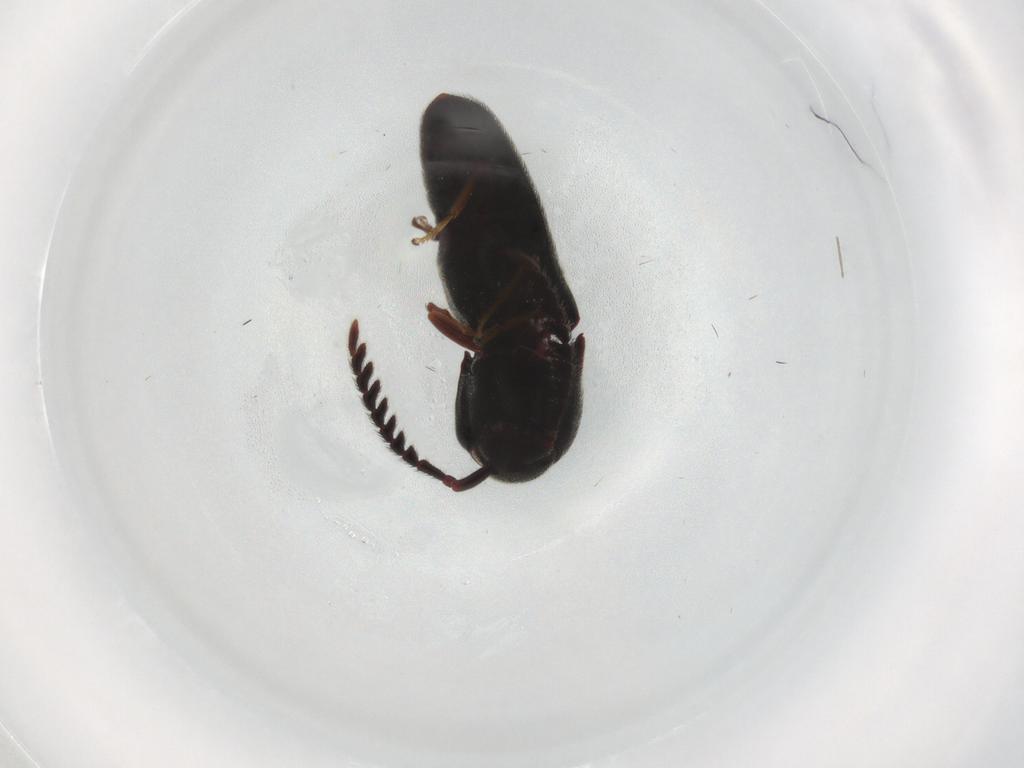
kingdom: Animalia
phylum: Arthropoda
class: Insecta
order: Coleoptera
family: Eucnemidae
